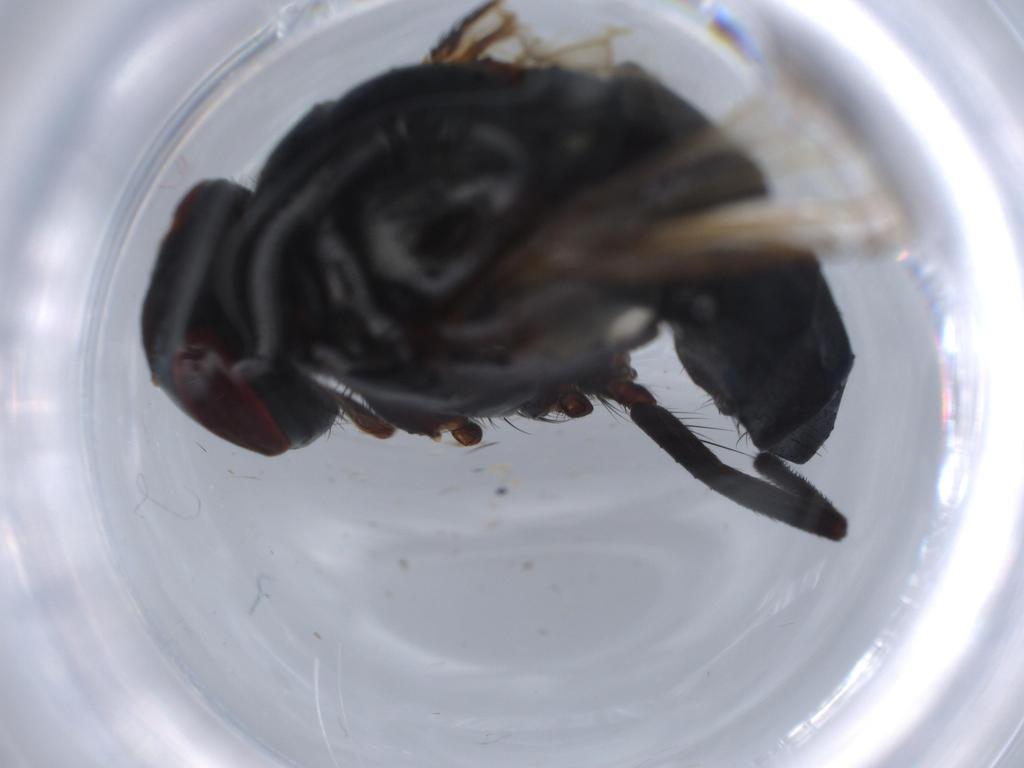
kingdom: Animalia
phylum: Arthropoda
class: Insecta
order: Diptera
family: Calliphoridae
